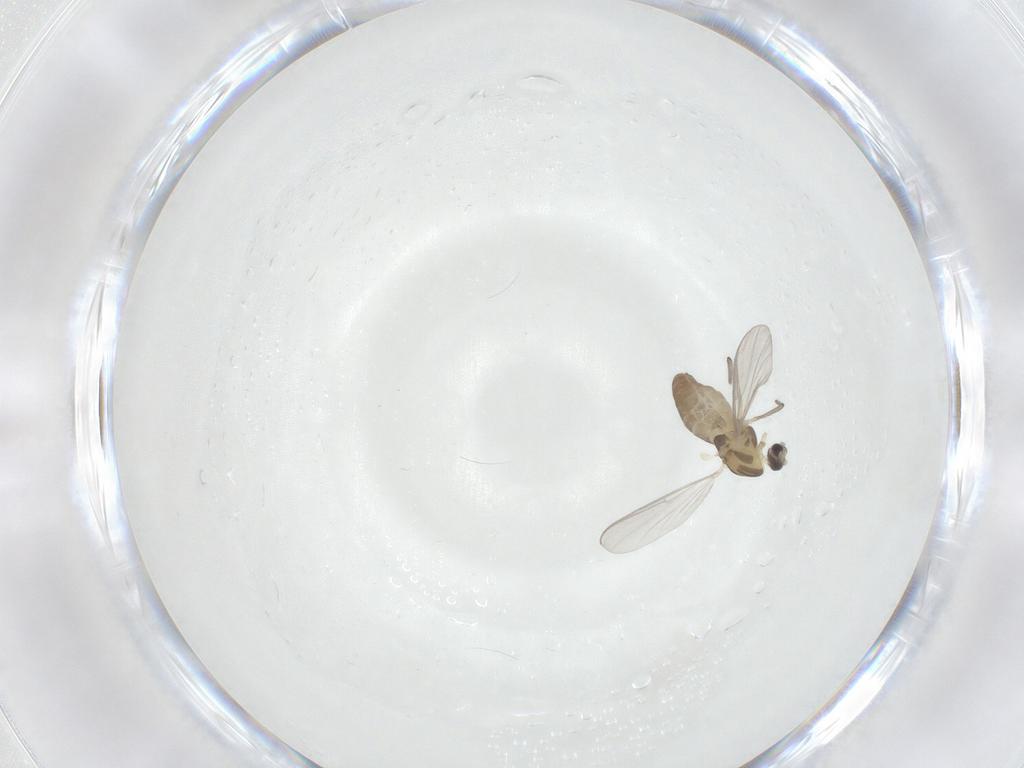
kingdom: Animalia
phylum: Arthropoda
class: Insecta
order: Diptera
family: Chironomidae
